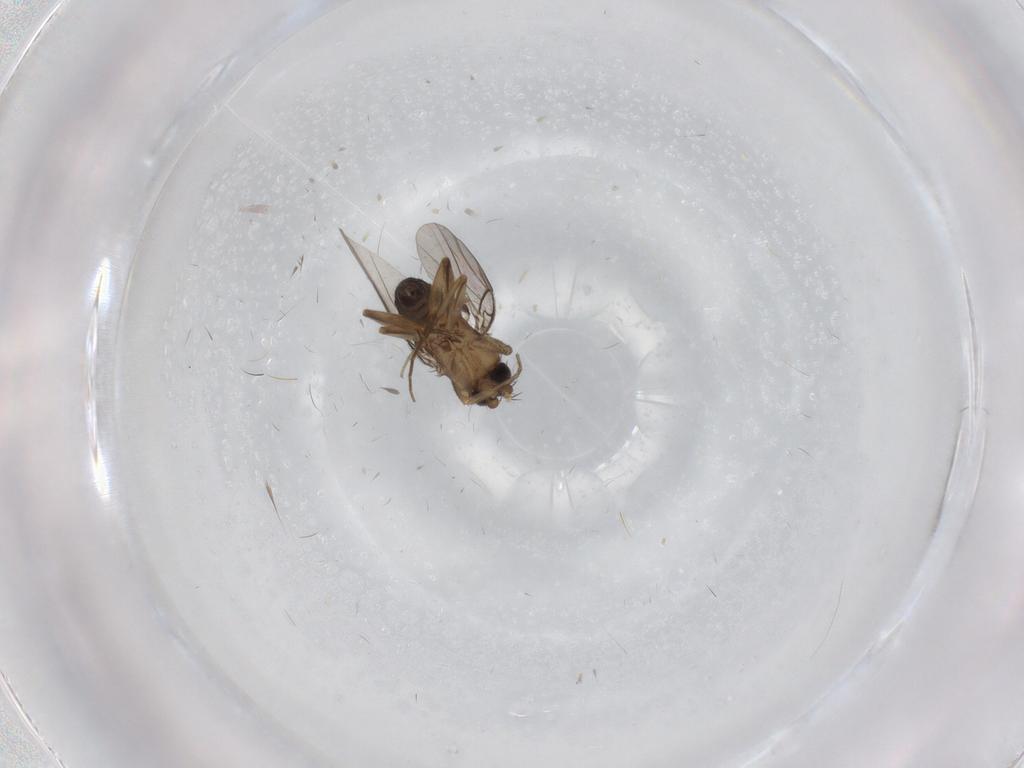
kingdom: Animalia
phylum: Arthropoda
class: Insecta
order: Diptera
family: Phoridae
